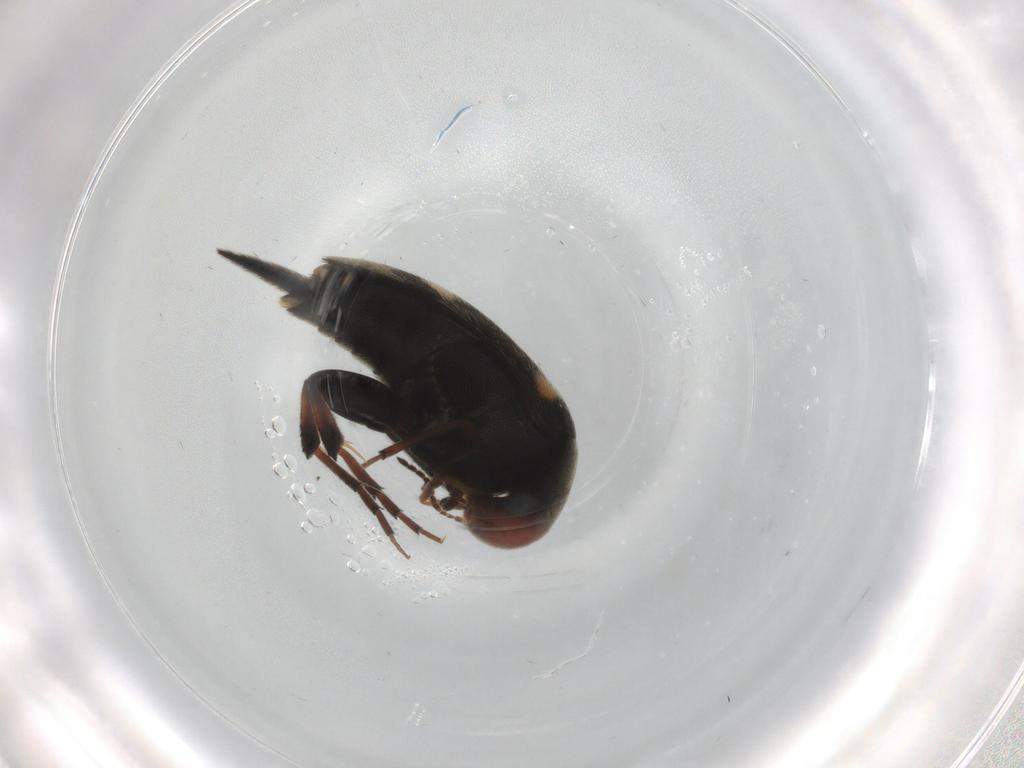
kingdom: Animalia
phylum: Arthropoda
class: Insecta
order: Coleoptera
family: Mordellidae
